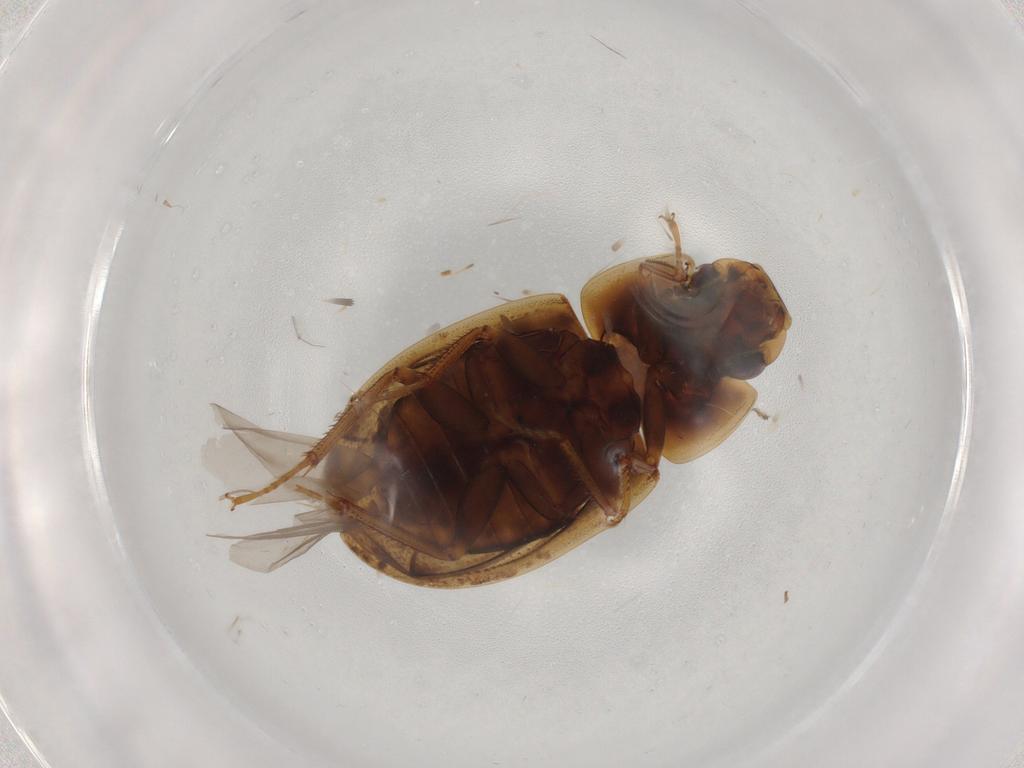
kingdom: Animalia
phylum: Arthropoda
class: Insecta
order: Coleoptera
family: Hydrophilidae
